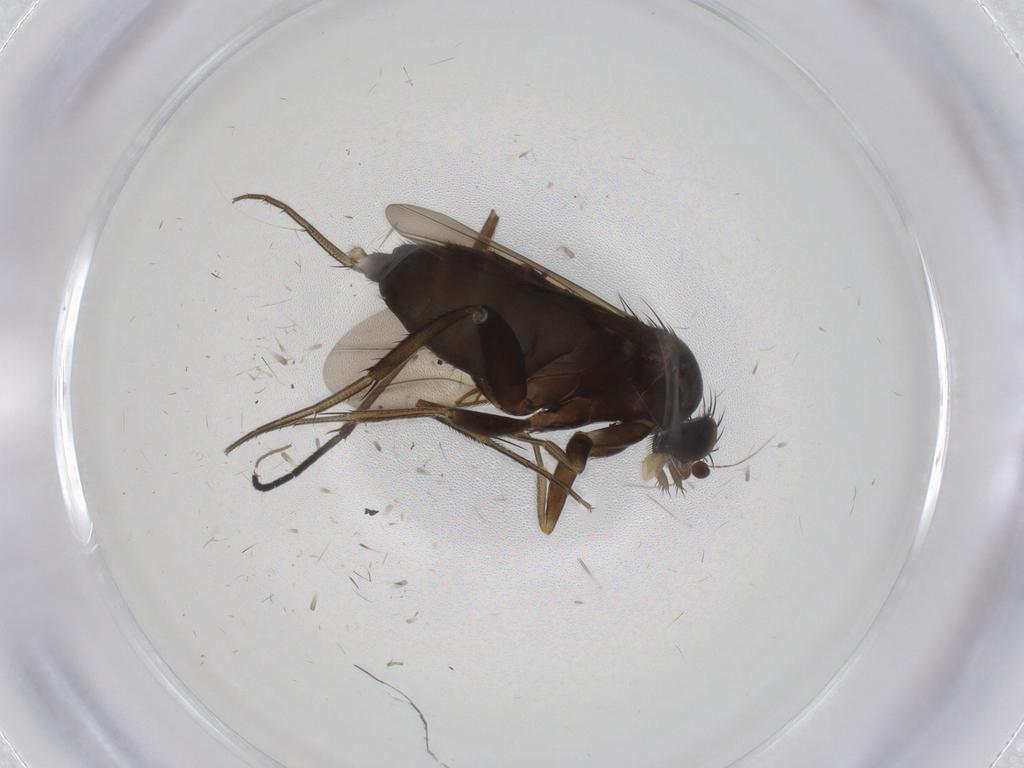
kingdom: Animalia
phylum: Arthropoda
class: Insecta
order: Diptera
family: Phoridae
